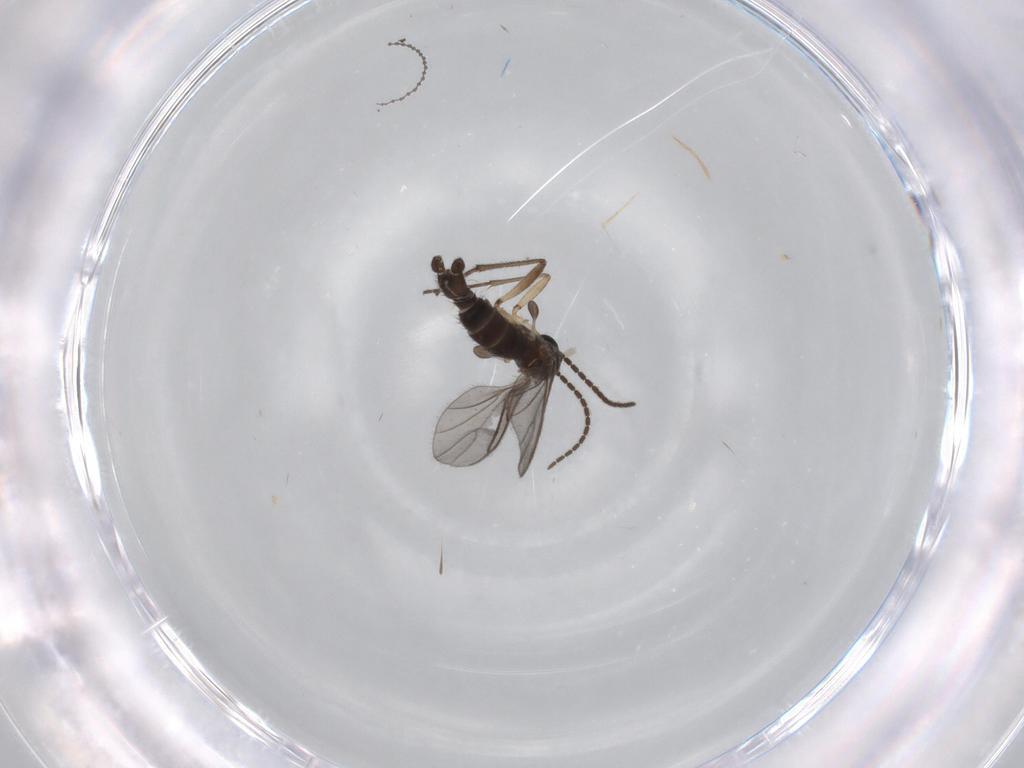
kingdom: Animalia
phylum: Arthropoda
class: Insecta
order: Diptera
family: Sciaridae
